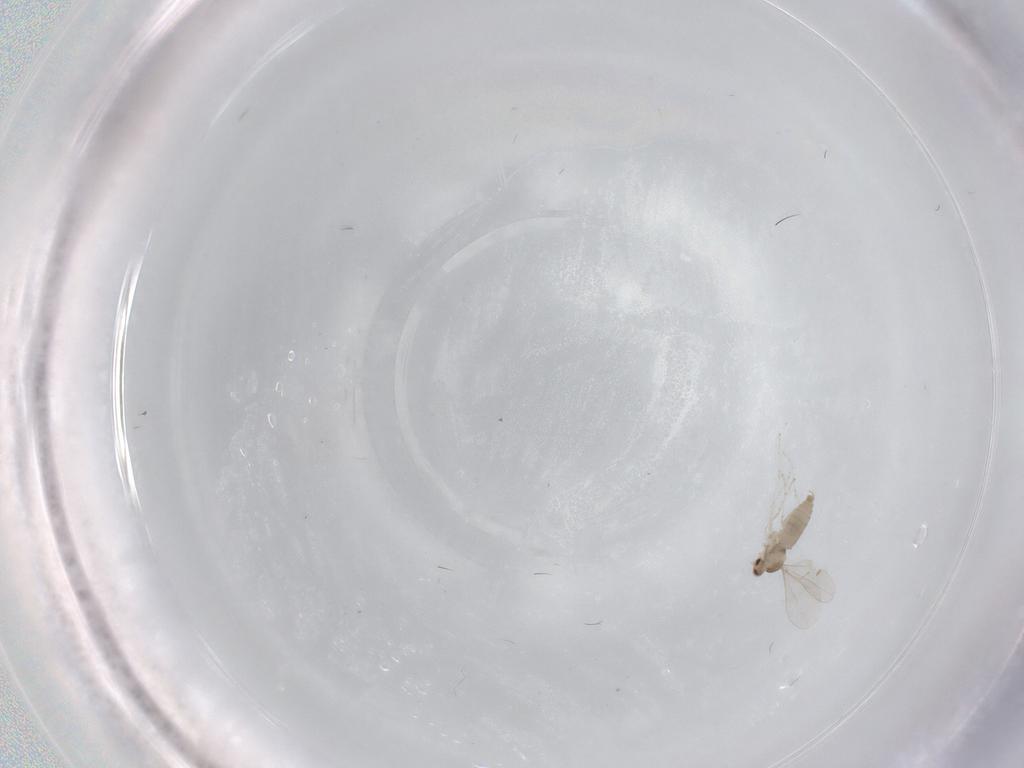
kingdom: Animalia
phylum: Arthropoda
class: Insecta
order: Diptera
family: Cecidomyiidae
